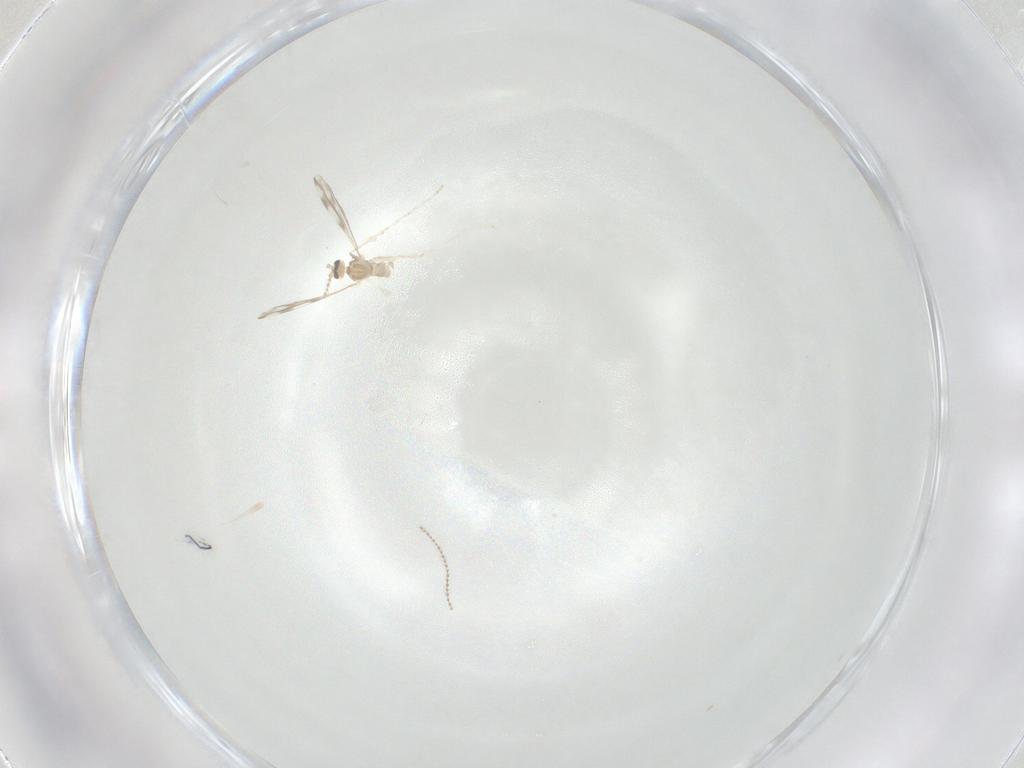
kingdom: Animalia
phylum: Arthropoda
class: Insecta
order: Diptera
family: Cecidomyiidae
